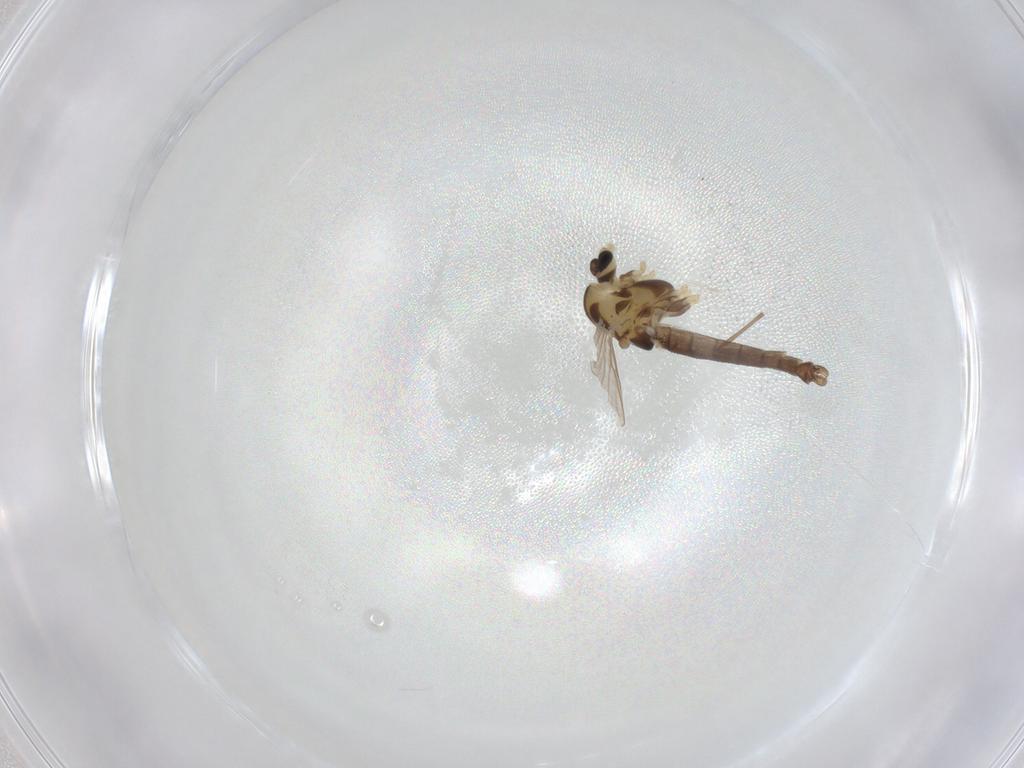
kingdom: Animalia
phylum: Arthropoda
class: Insecta
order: Diptera
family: Chironomidae
